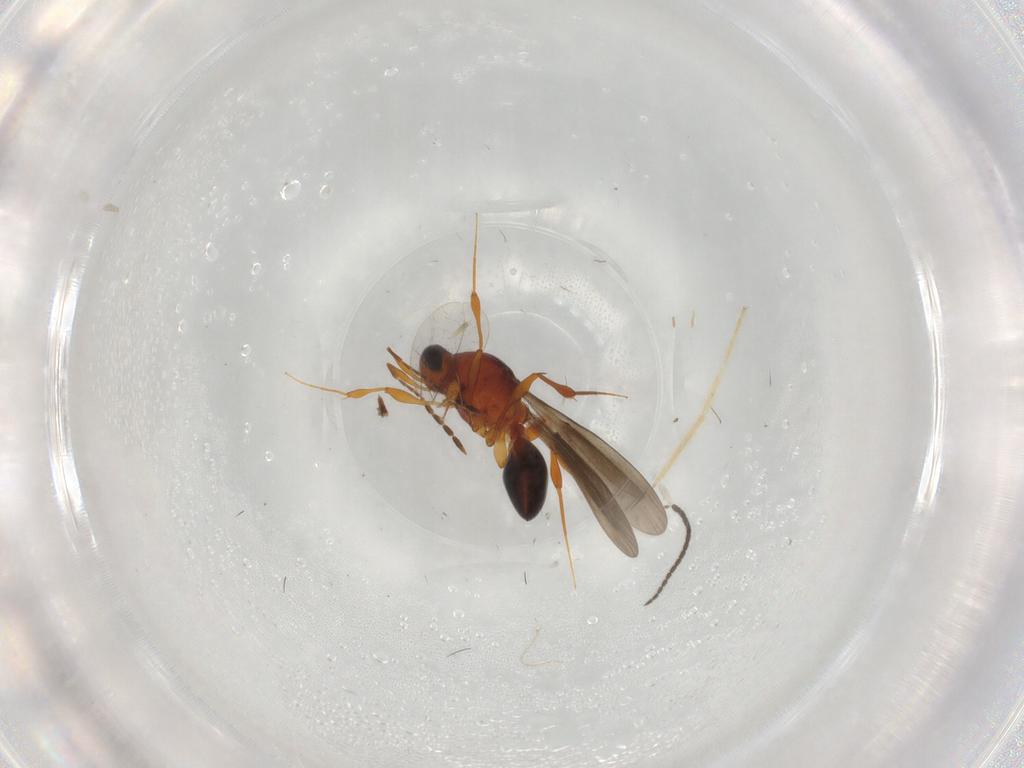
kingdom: Animalia
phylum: Arthropoda
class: Insecta
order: Hymenoptera
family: Platygastridae
